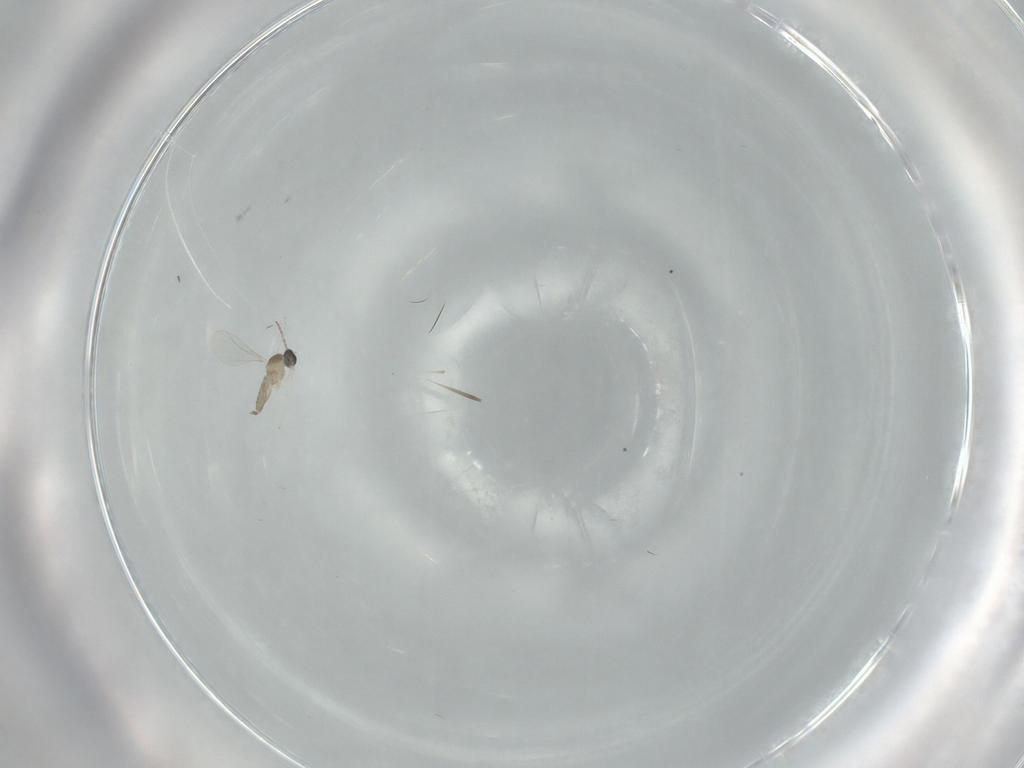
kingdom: Animalia
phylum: Arthropoda
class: Insecta
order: Diptera
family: Cecidomyiidae
